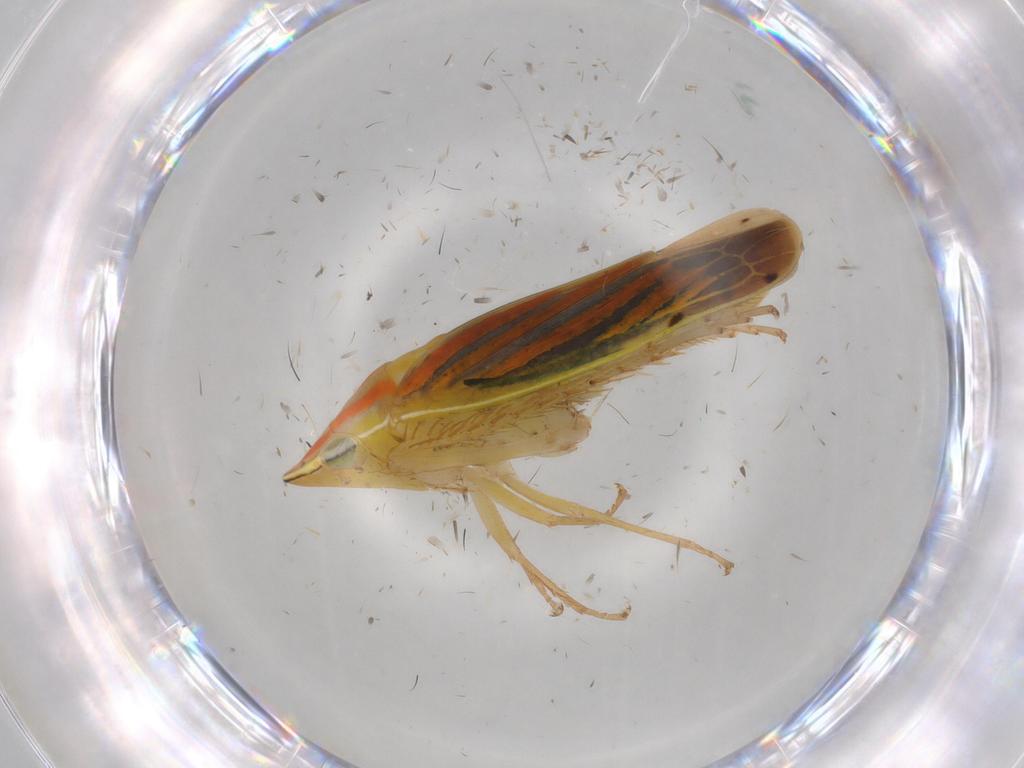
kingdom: Animalia
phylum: Arthropoda
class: Insecta
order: Hemiptera
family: Cicadellidae
